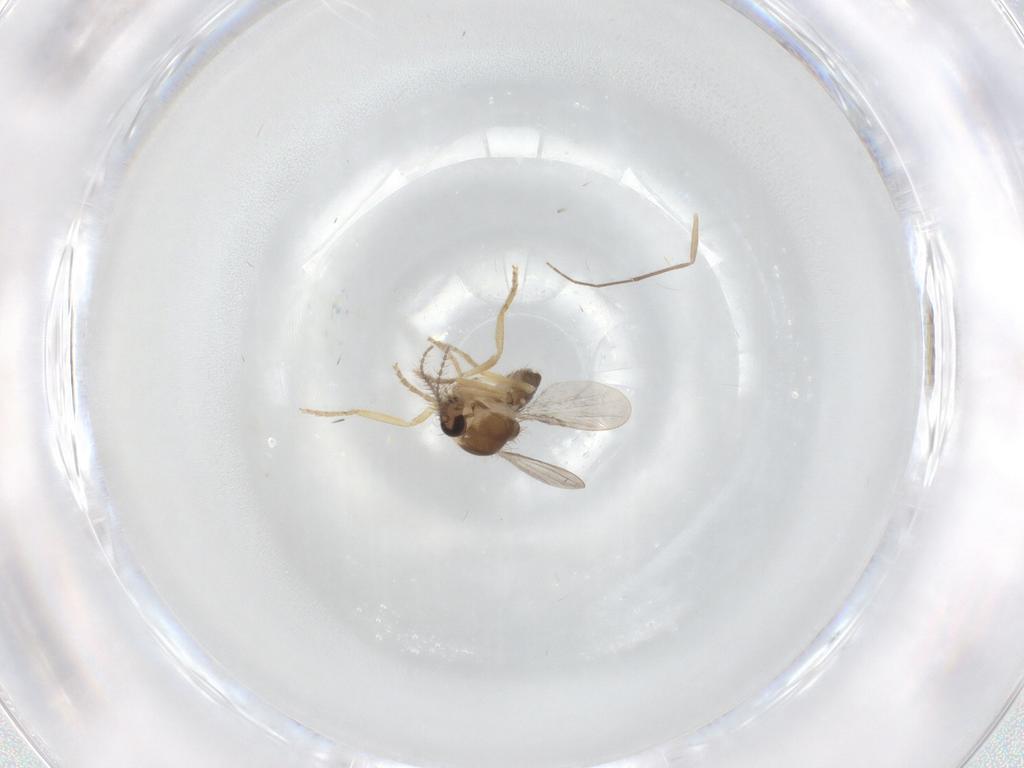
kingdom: Animalia
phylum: Arthropoda
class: Insecta
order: Diptera
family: Ceratopogonidae
